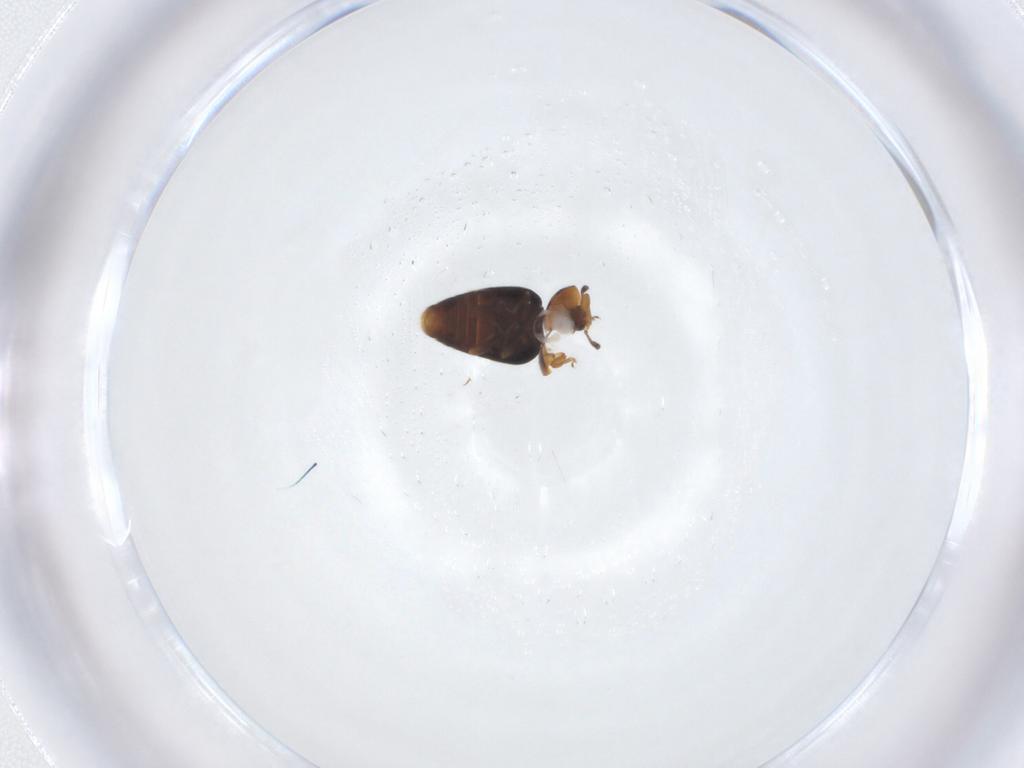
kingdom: Animalia
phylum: Arthropoda
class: Insecta
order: Coleoptera
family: Corylophidae
